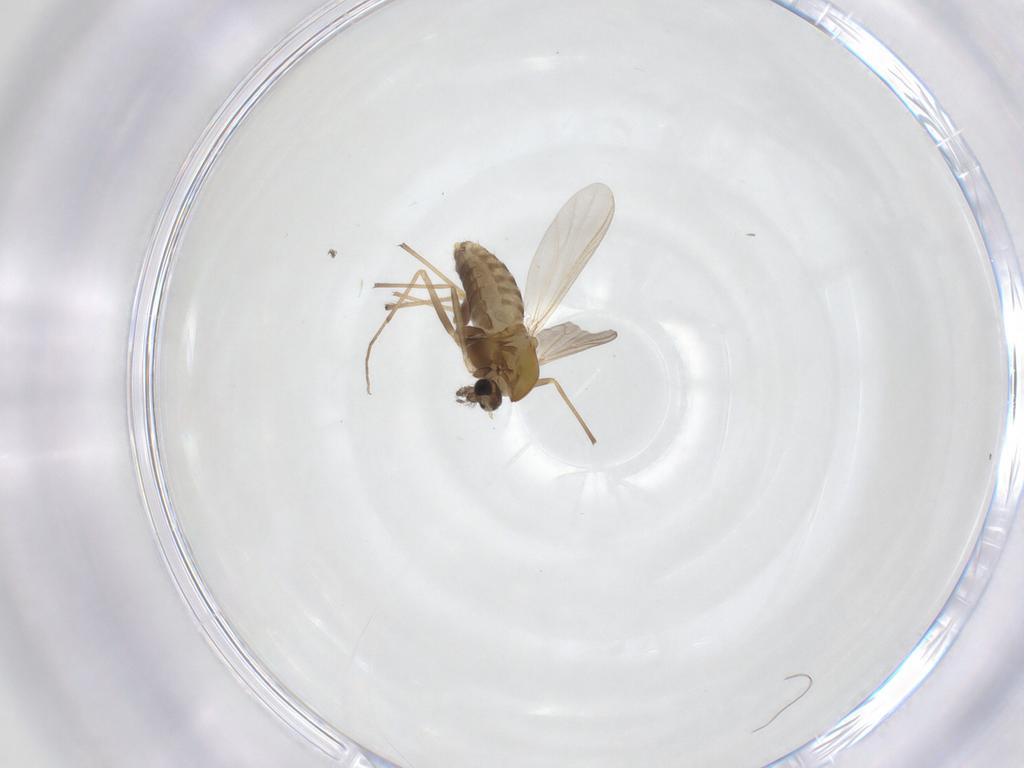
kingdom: Animalia
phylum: Arthropoda
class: Insecta
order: Diptera
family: Chironomidae
